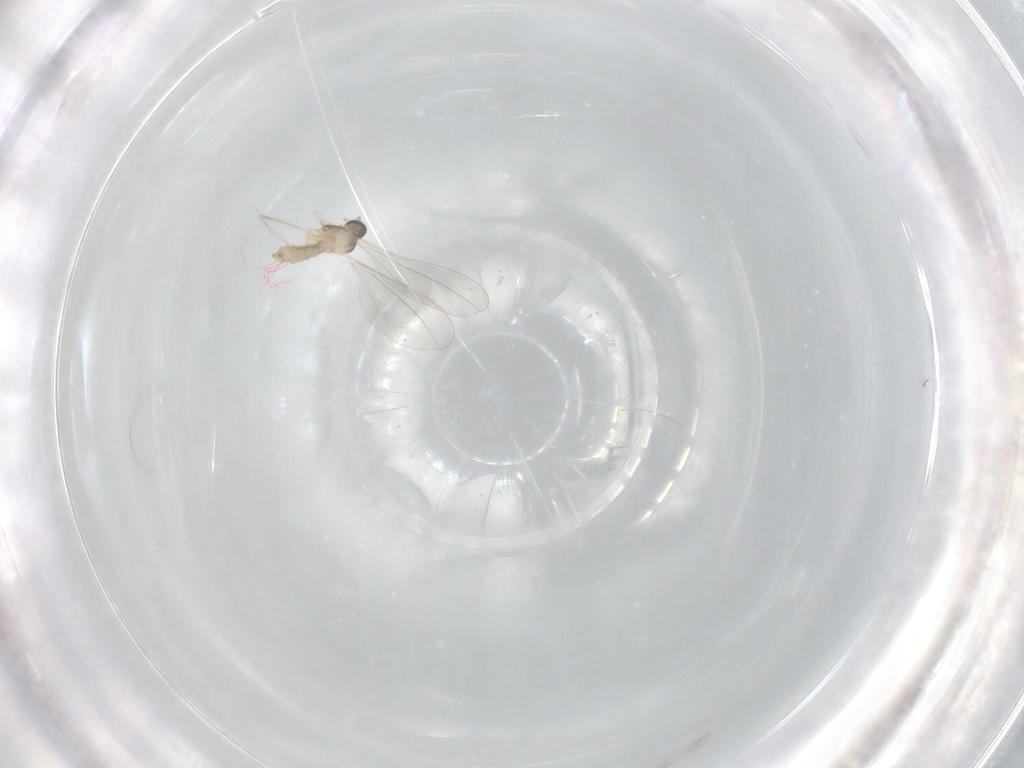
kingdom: Animalia
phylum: Arthropoda
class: Insecta
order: Diptera
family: Cecidomyiidae
